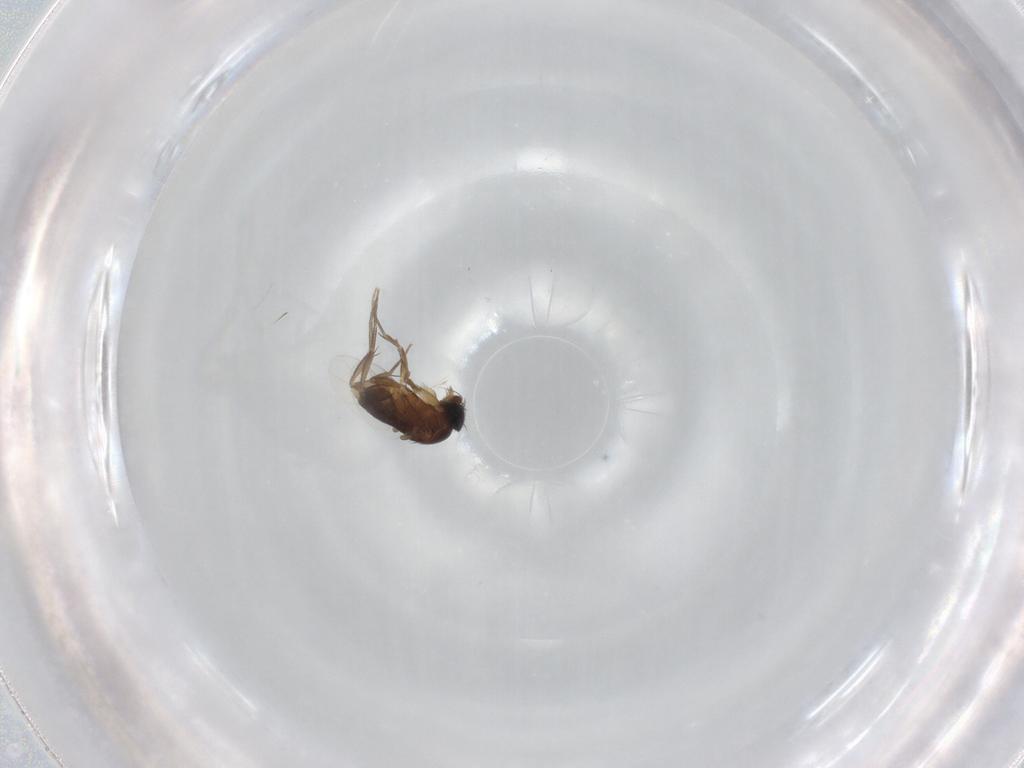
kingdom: Animalia
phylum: Arthropoda
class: Insecta
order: Diptera
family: Phoridae
